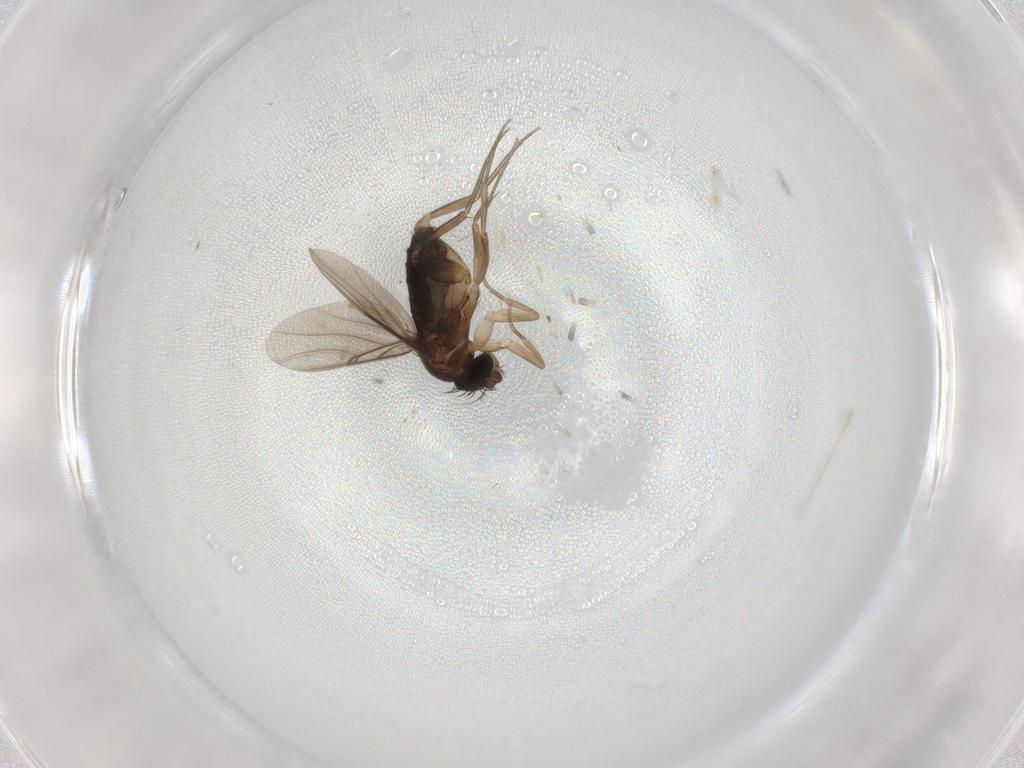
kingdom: Animalia
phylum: Arthropoda
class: Insecta
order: Diptera
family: Phoridae
